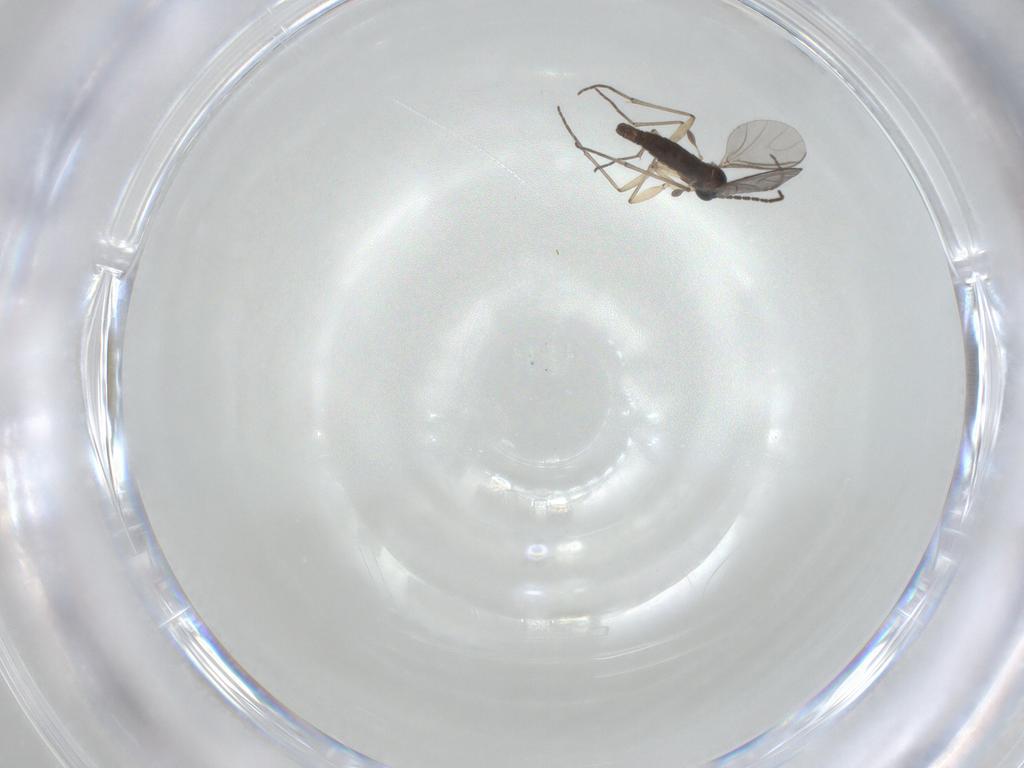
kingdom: Animalia
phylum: Arthropoda
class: Insecta
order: Diptera
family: Sciaridae
